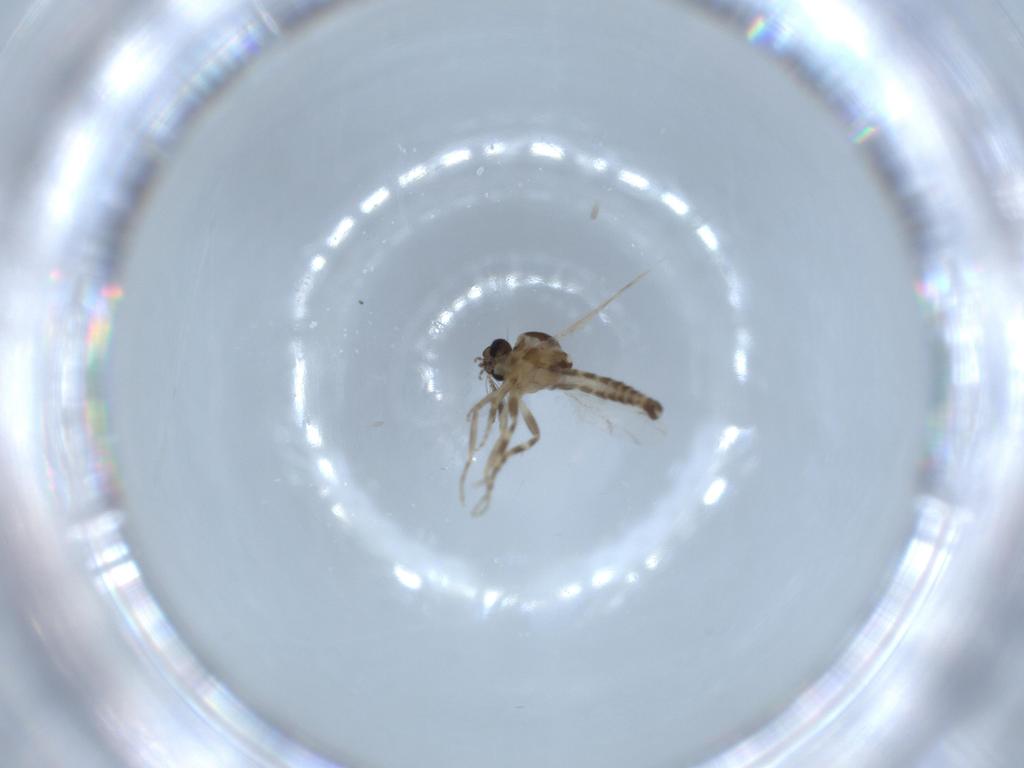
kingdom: Animalia
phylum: Arthropoda
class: Insecta
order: Diptera
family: Ceratopogonidae
